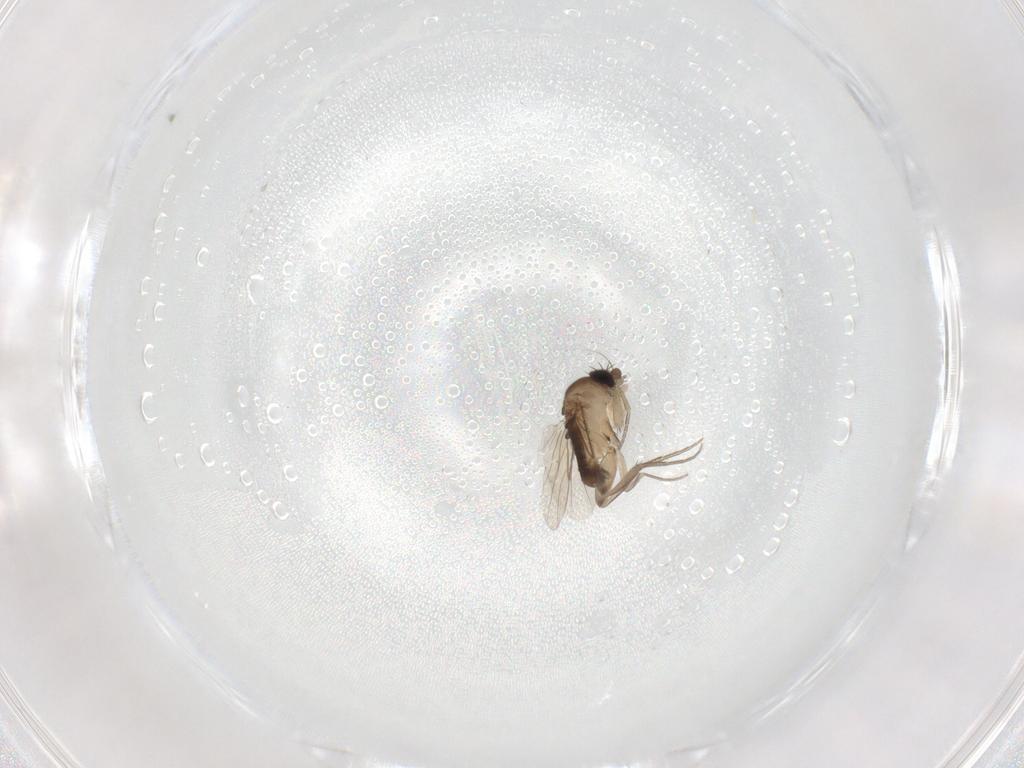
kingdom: Animalia
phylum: Arthropoda
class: Insecta
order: Diptera
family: Phoridae
